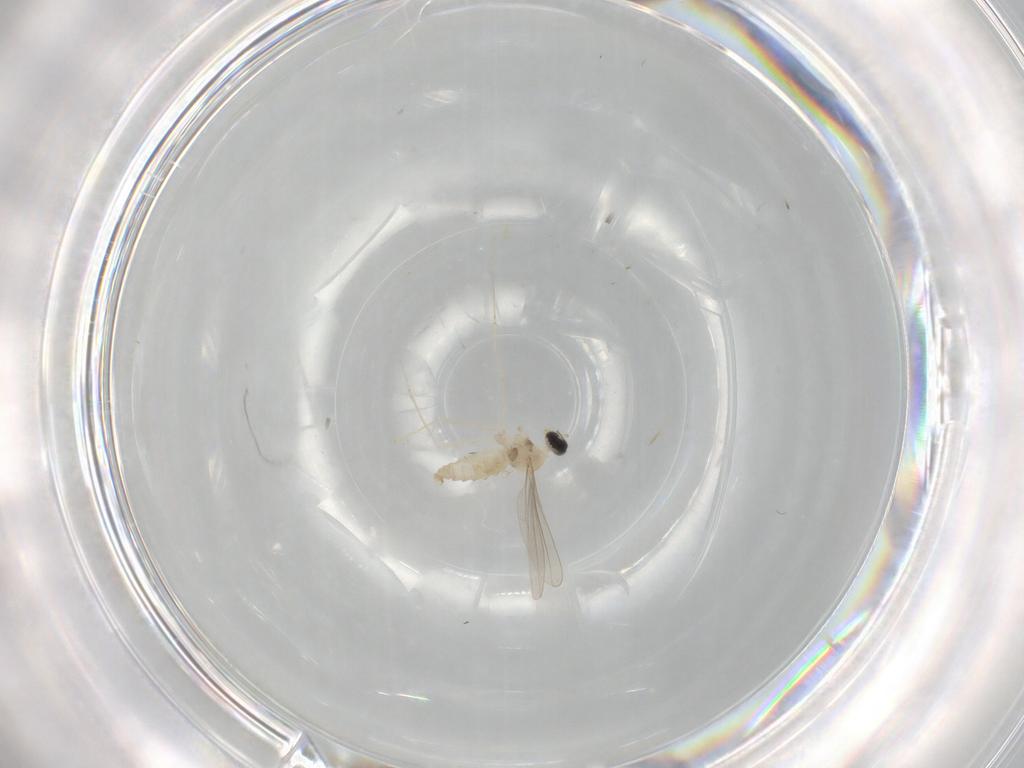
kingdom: Animalia
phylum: Arthropoda
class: Insecta
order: Diptera
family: Cecidomyiidae
